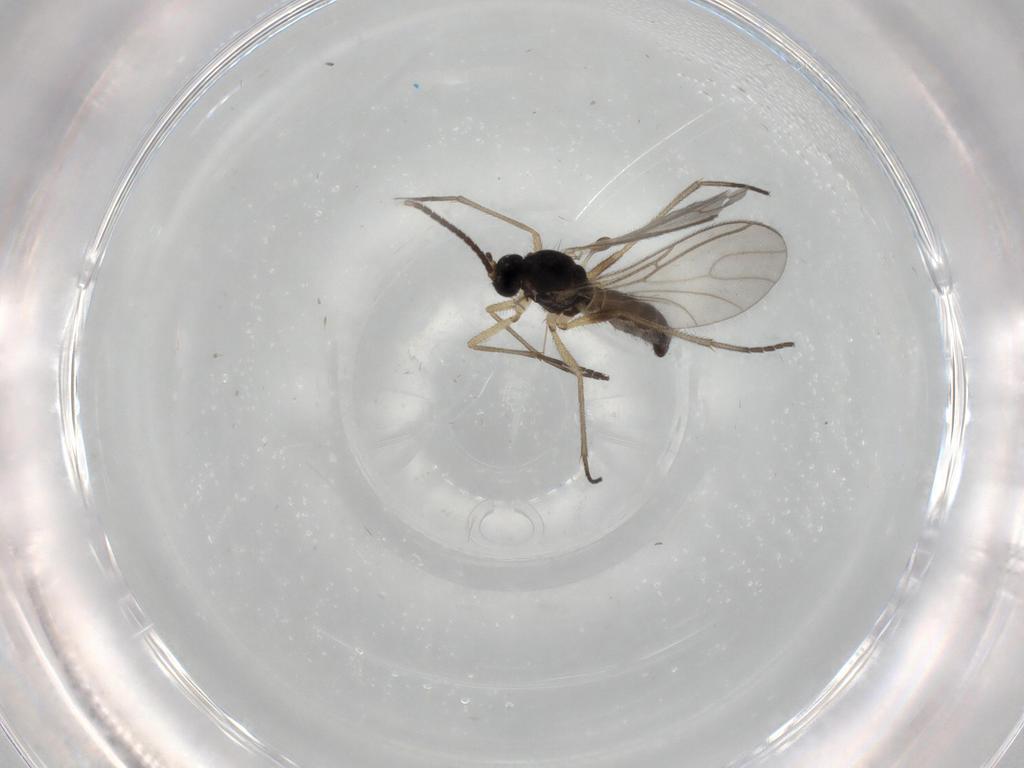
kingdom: Animalia
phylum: Arthropoda
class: Insecta
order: Diptera
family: Sciaridae
